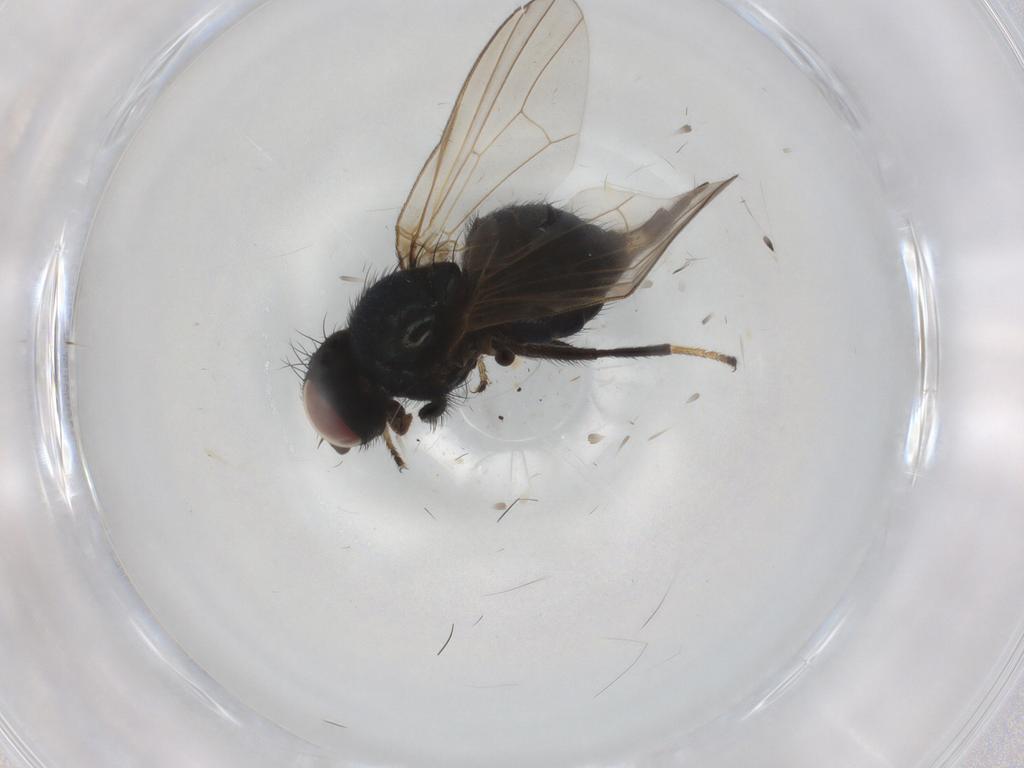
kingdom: Animalia
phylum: Arthropoda
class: Insecta
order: Diptera
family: Lonchaeidae
